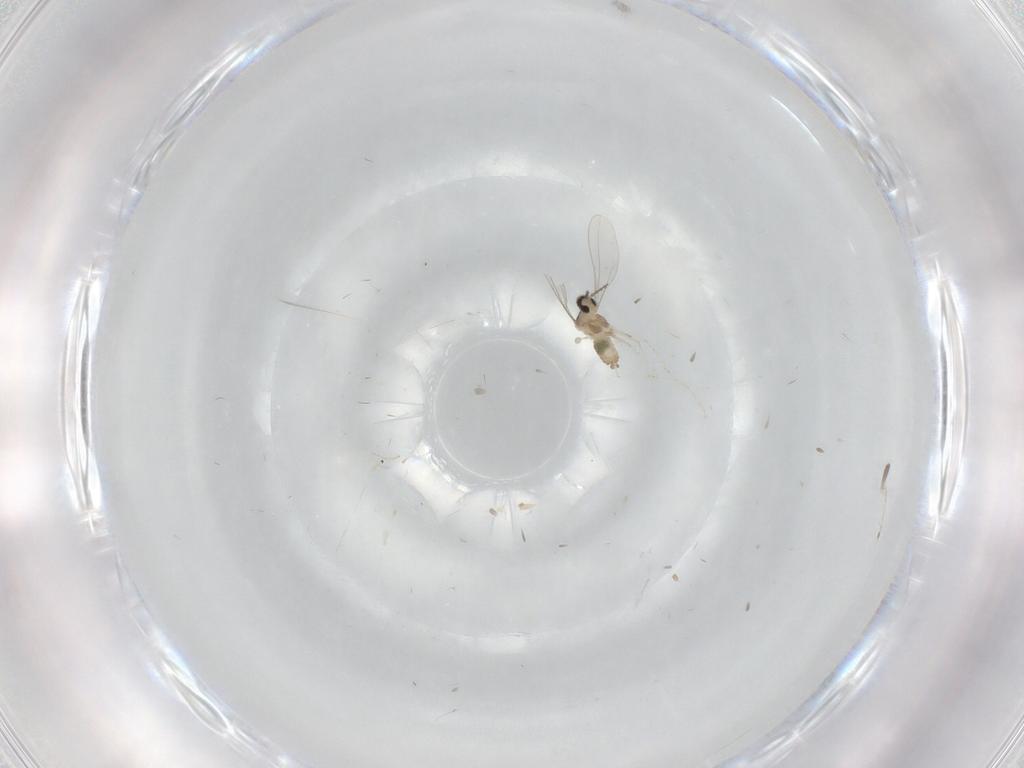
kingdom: Animalia
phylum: Arthropoda
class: Insecta
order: Diptera
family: Cecidomyiidae
